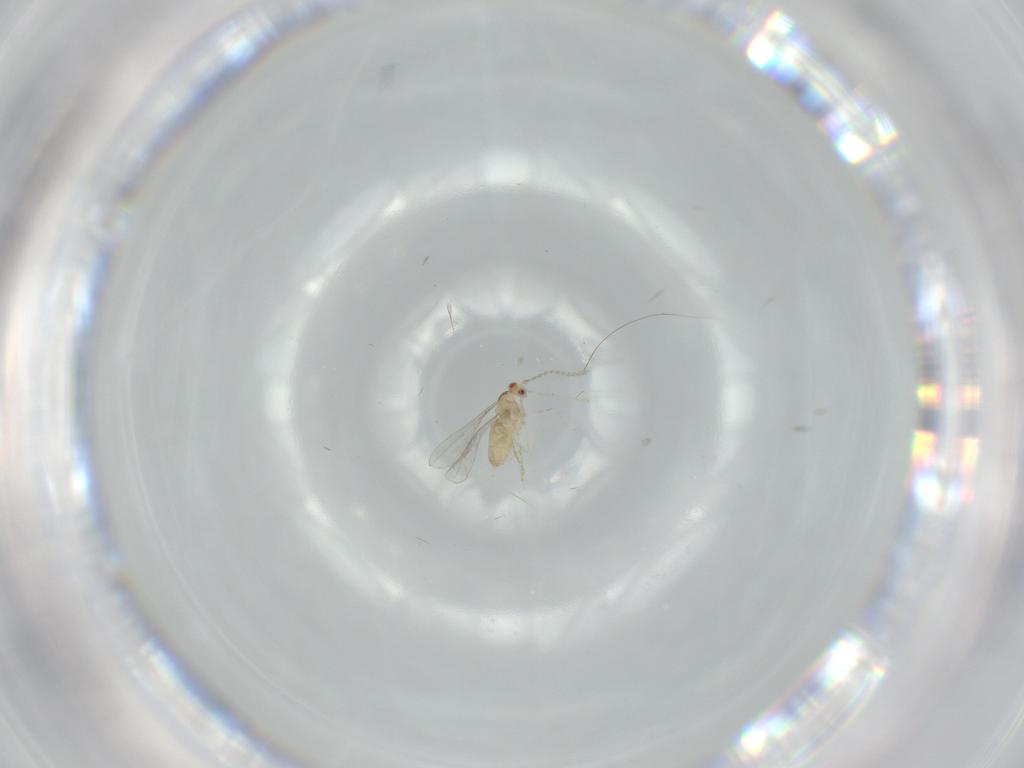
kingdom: Animalia
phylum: Arthropoda
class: Insecta
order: Diptera
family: Cecidomyiidae
